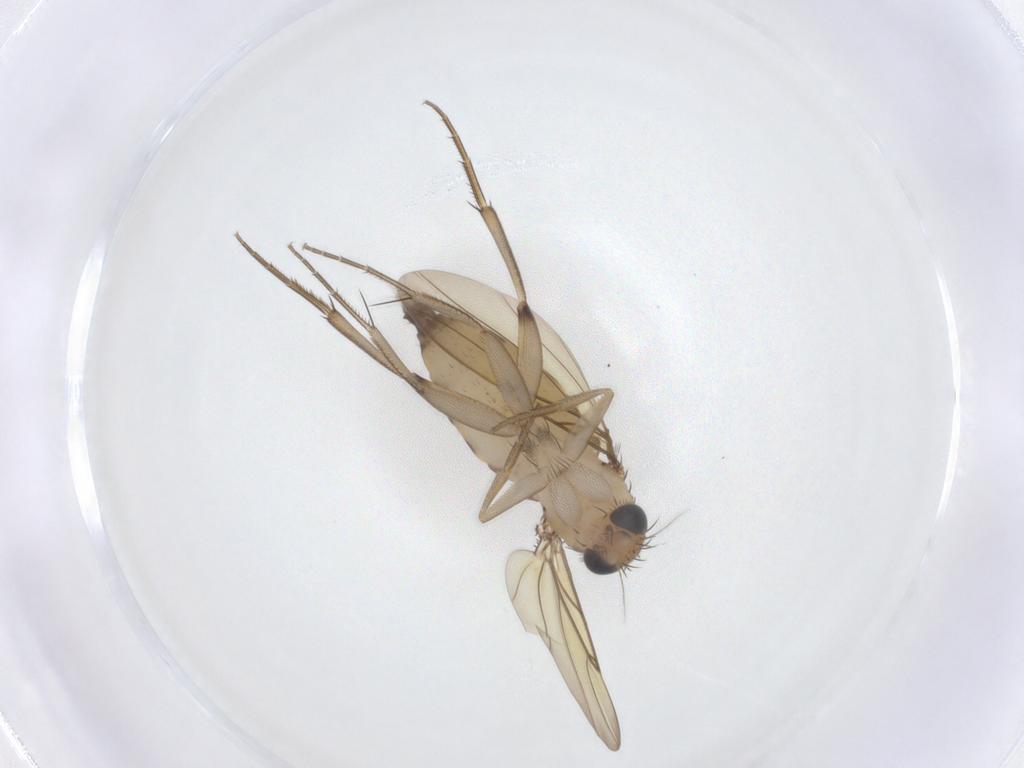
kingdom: Animalia
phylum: Arthropoda
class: Insecta
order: Diptera
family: Phoridae
